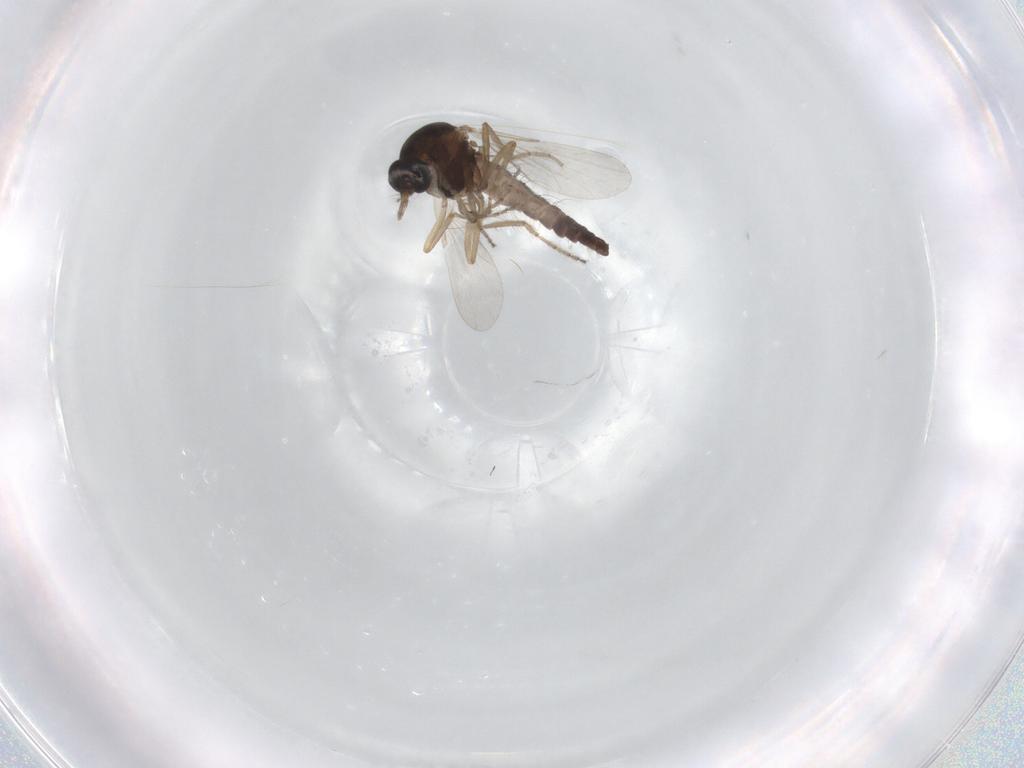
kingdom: Animalia
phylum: Arthropoda
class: Insecta
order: Diptera
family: Ceratopogonidae
